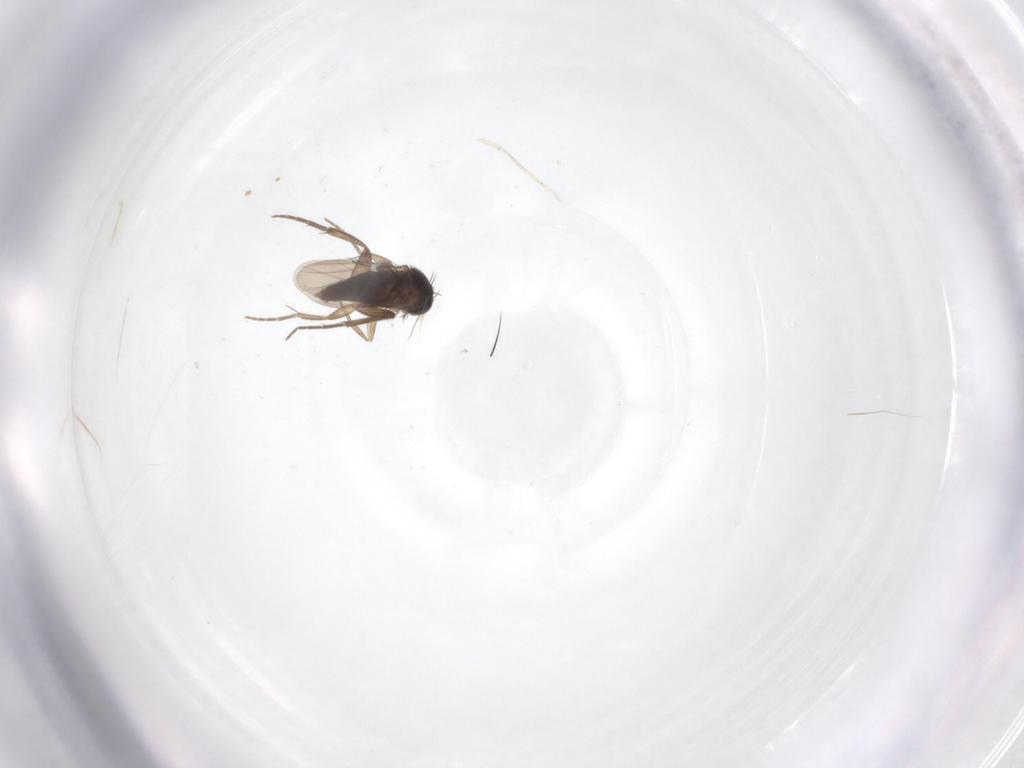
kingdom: Animalia
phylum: Arthropoda
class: Insecta
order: Diptera
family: Phoridae
